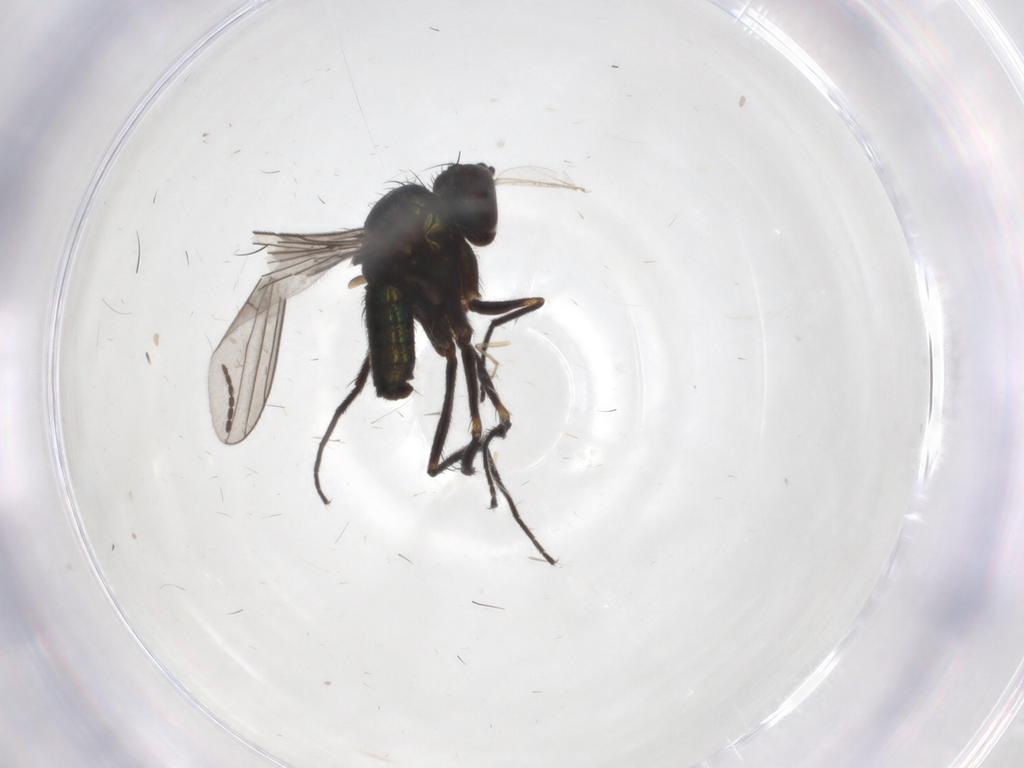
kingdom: Animalia
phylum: Arthropoda
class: Insecta
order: Diptera
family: Dolichopodidae
